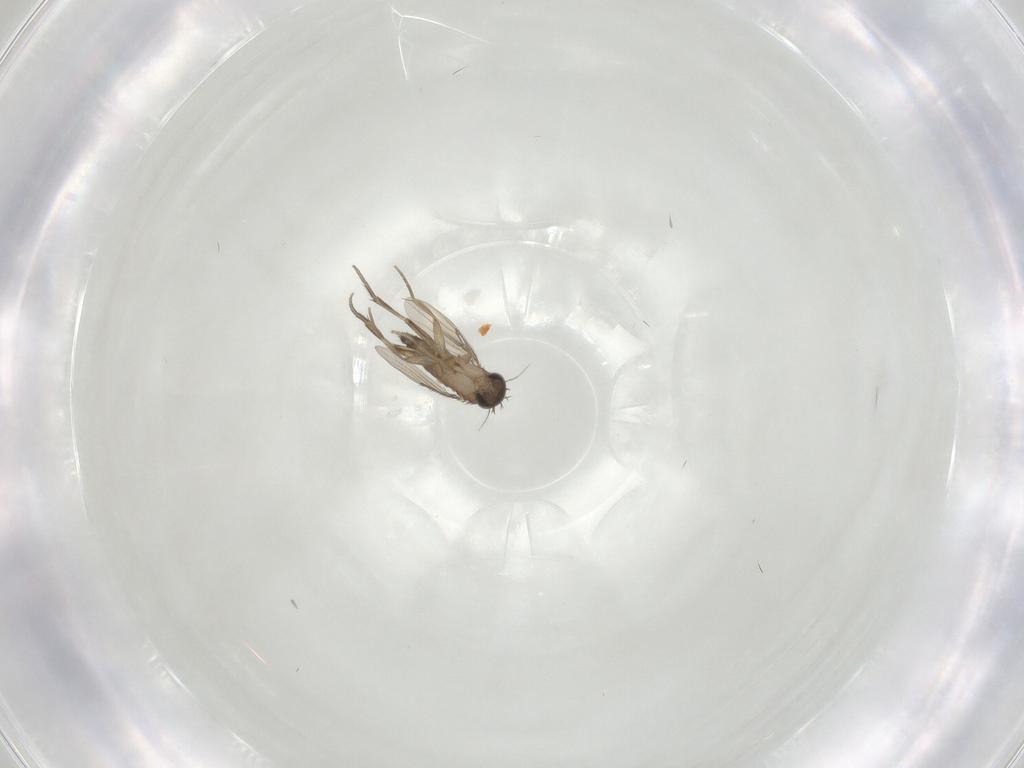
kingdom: Animalia
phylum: Arthropoda
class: Insecta
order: Diptera
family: Phoridae
